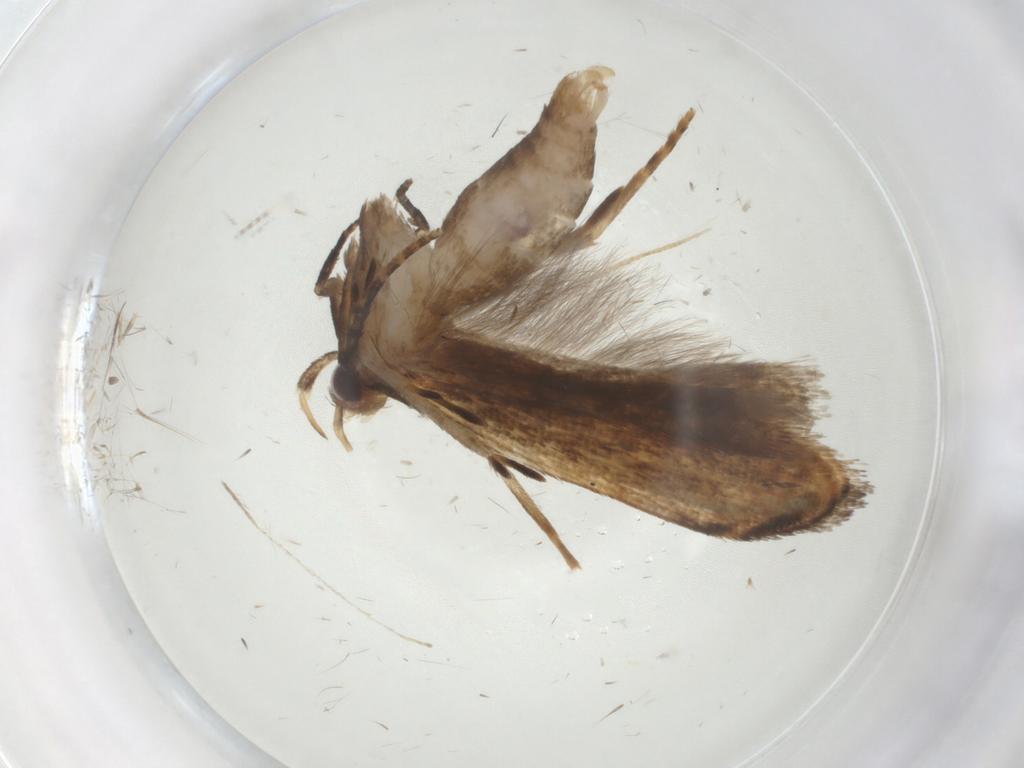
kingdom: Animalia
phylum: Arthropoda
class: Insecta
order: Lepidoptera
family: Gelechiidae
